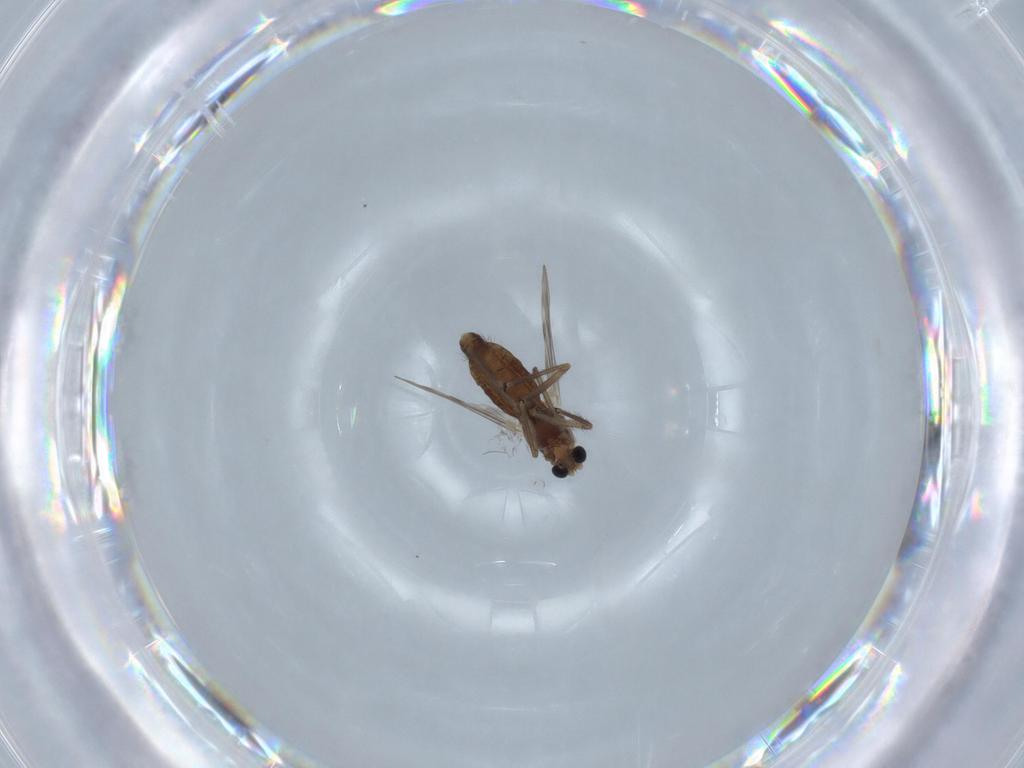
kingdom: Animalia
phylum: Arthropoda
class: Insecta
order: Diptera
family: Chironomidae
